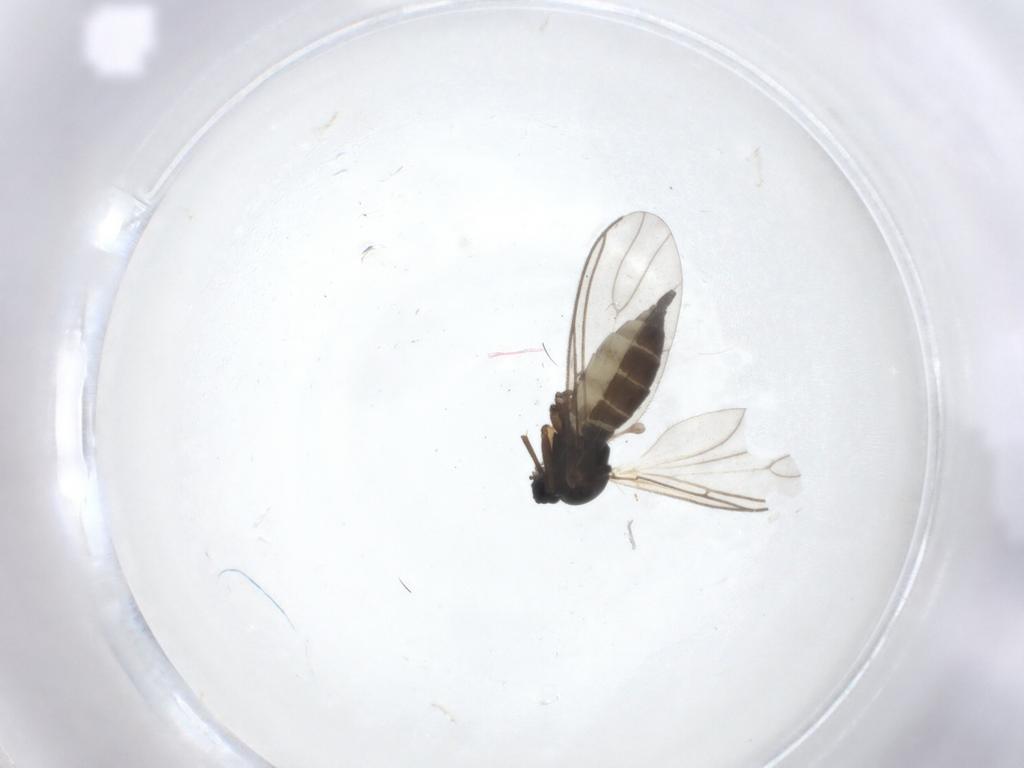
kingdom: Animalia
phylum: Arthropoda
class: Insecta
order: Diptera
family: Sciaridae
